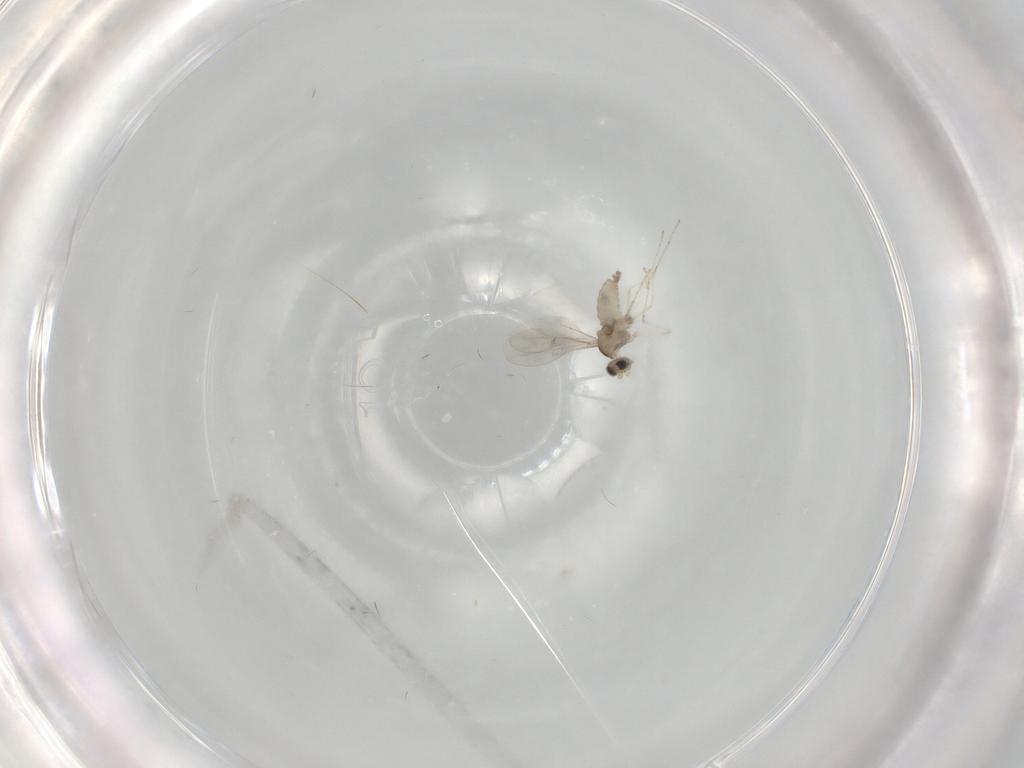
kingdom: Animalia
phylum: Arthropoda
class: Insecta
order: Diptera
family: Cecidomyiidae
